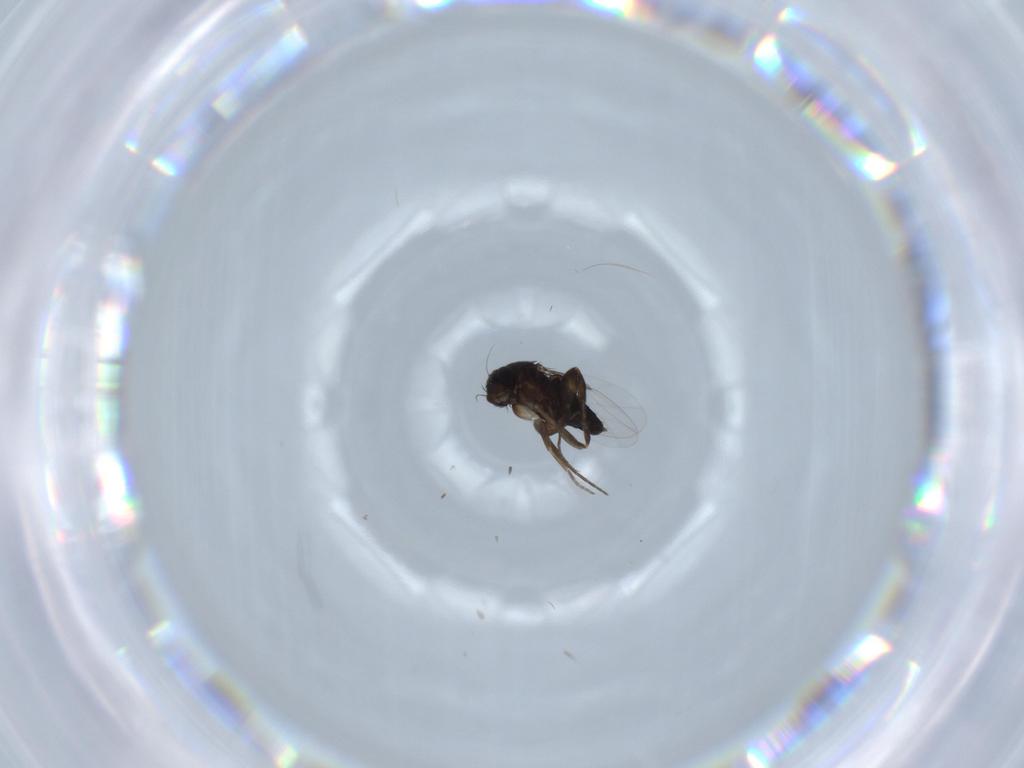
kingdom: Animalia
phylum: Arthropoda
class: Insecta
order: Diptera
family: Phoridae
